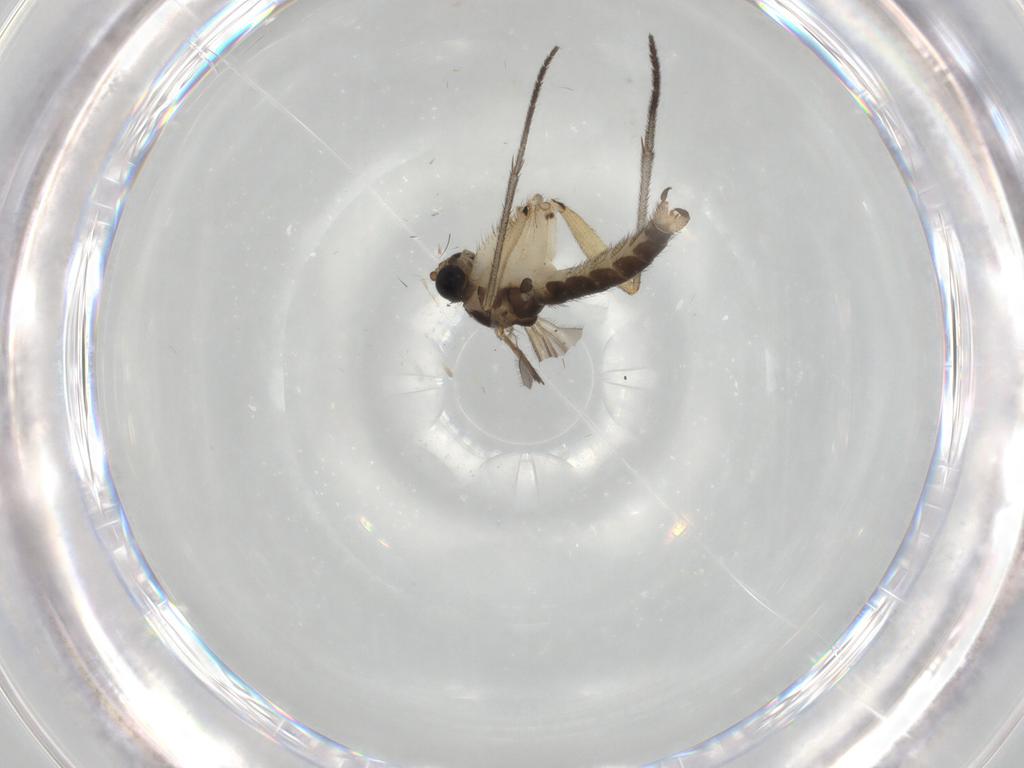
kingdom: Animalia
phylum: Arthropoda
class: Insecta
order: Diptera
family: Sciaridae
